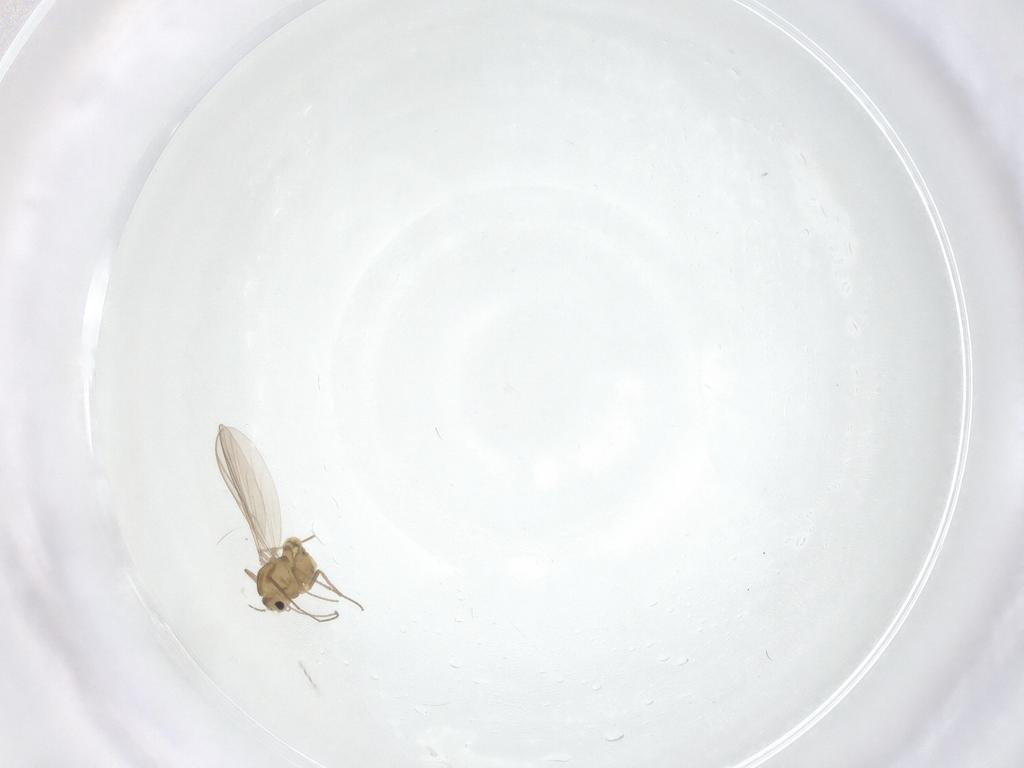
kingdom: Animalia
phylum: Arthropoda
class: Insecta
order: Diptera
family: Chironomidae
